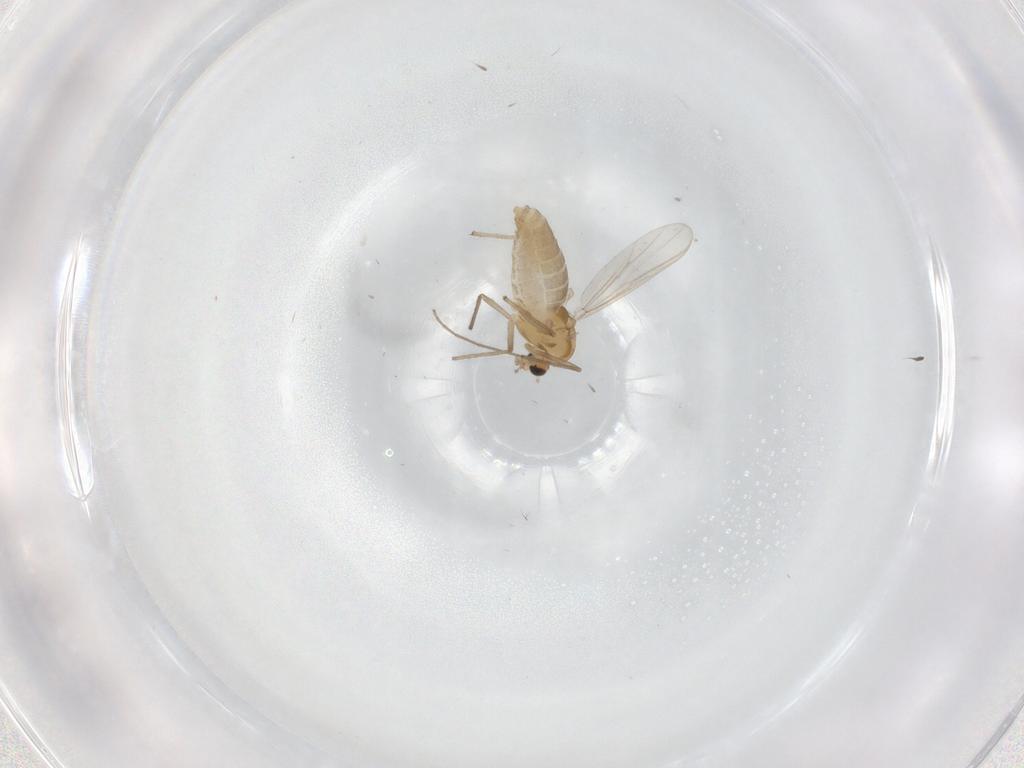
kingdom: Animalia
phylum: Arthropoda
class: Insecta
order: Diptera
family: Chironomidae
